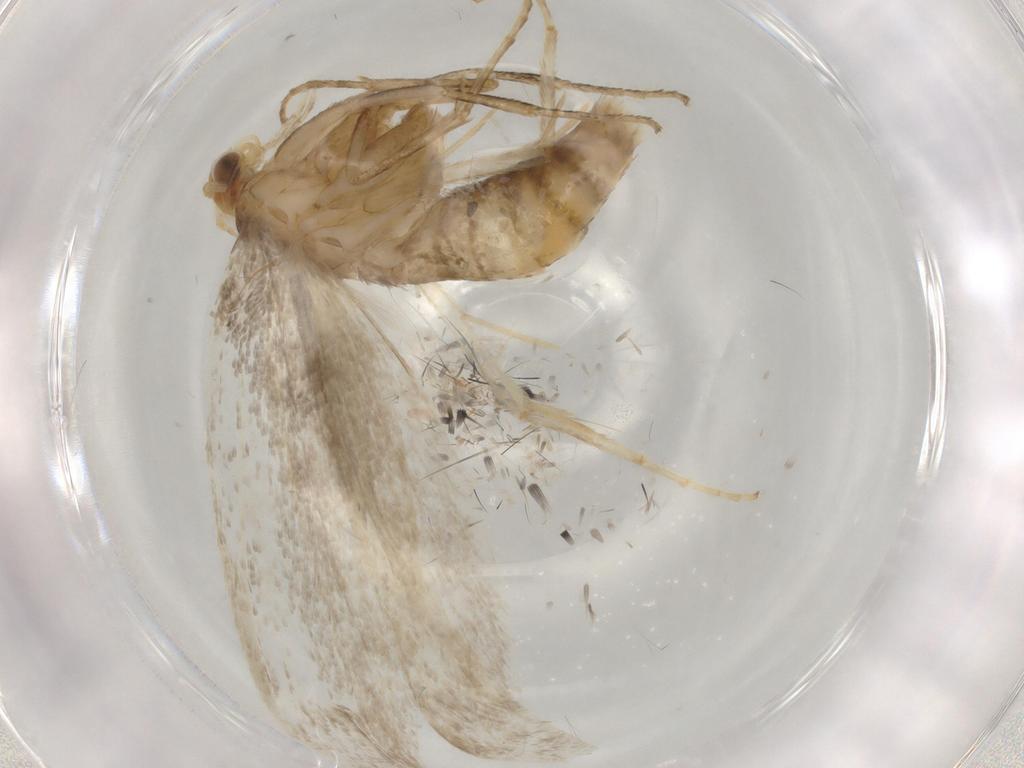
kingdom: Animalia
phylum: Arthropoda
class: Insecta
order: Lepidoptera
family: Argyresthiidae
